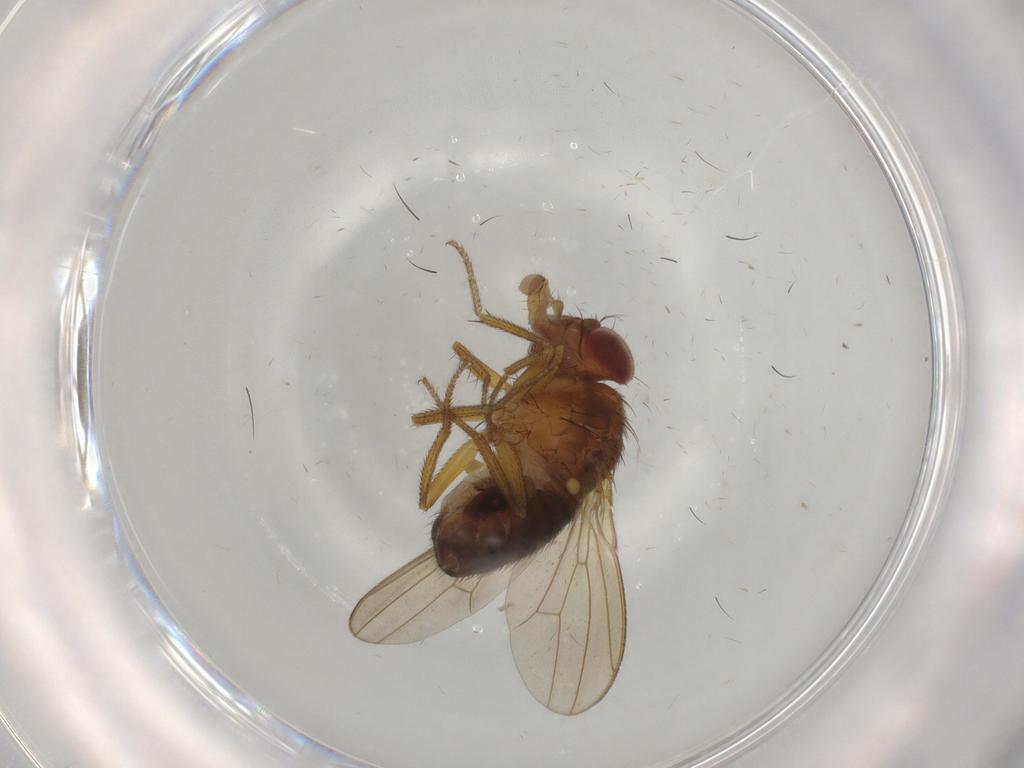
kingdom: Animalia
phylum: Arthropoda
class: Insecta
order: Diptera
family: Drosophilidae
